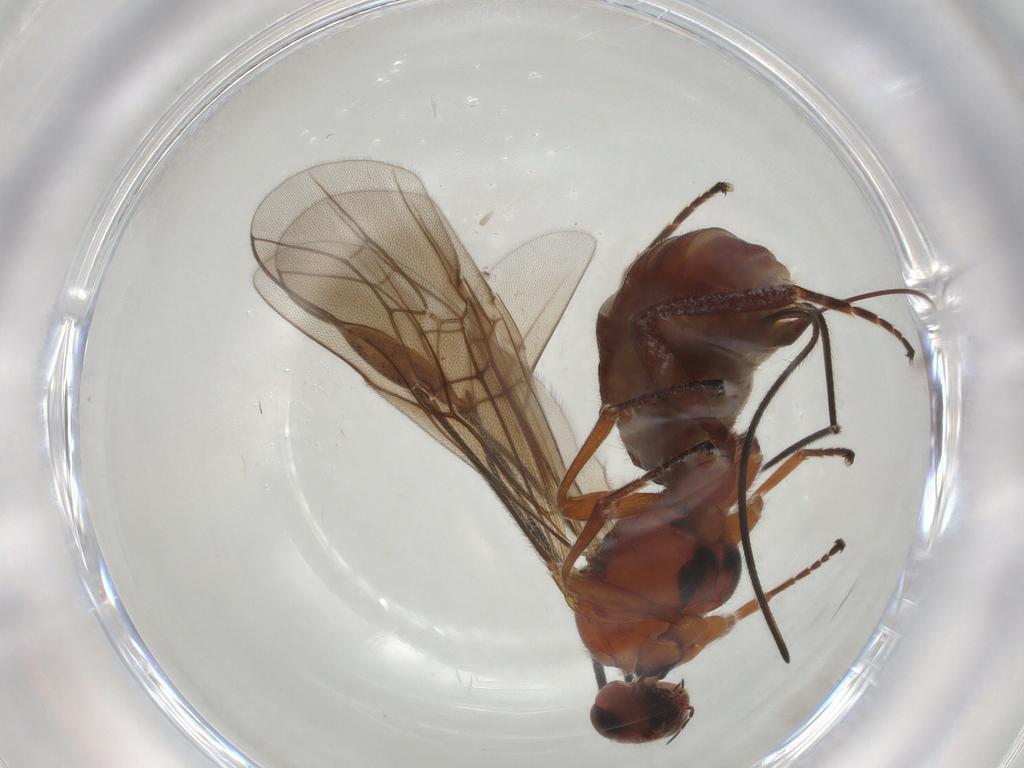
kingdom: Animalia
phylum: Arthropoda
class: Insecta
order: Hymenoptera
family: Braconidae
